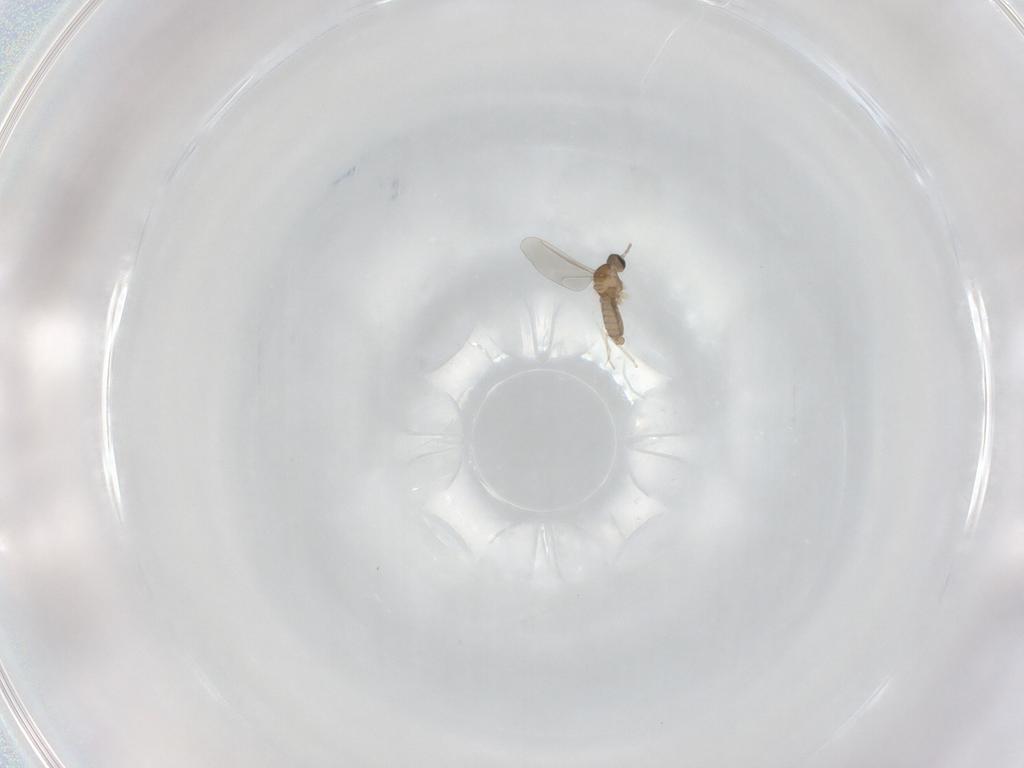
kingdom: Animalia
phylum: Arthropoda
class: Insecta
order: Diptera
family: Cecidomyiidae
